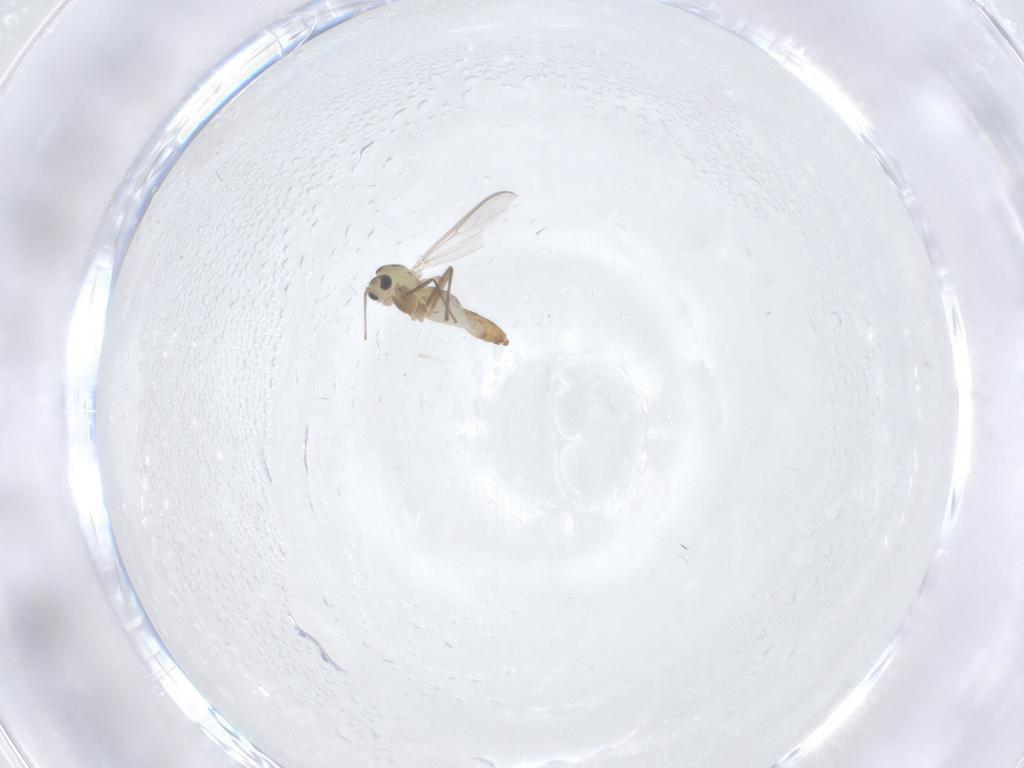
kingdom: Animalia
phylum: Arthropoda
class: Insecta
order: Diptera
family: Chironomidae
